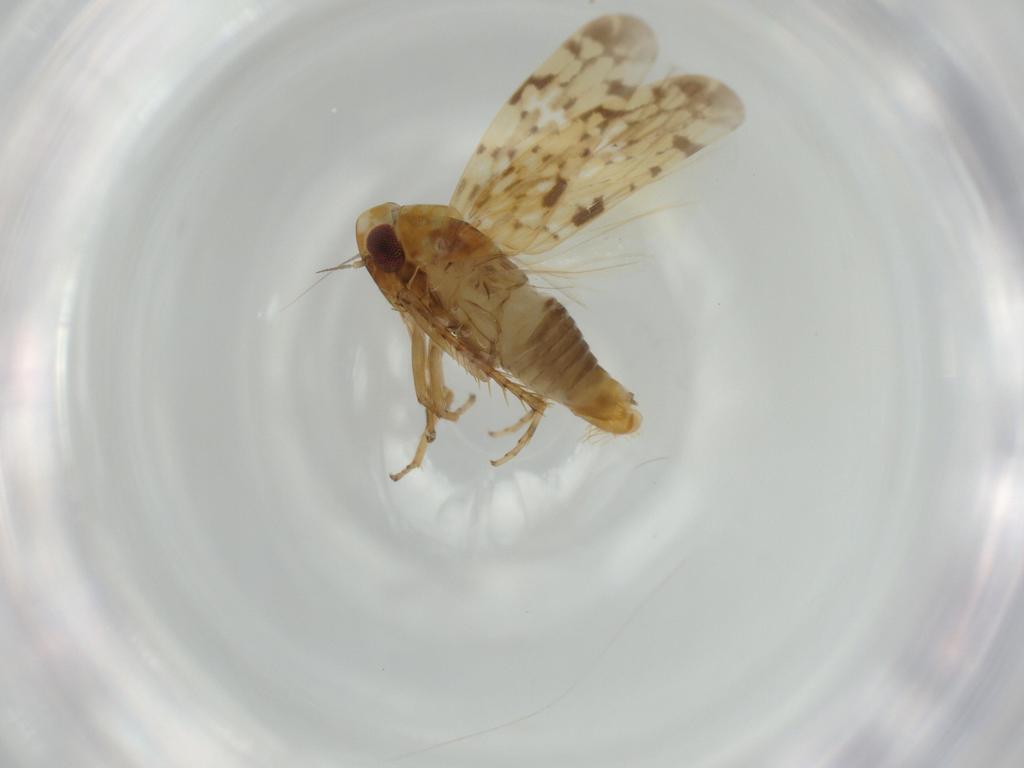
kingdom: Animalia
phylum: Arthropoda
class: Insecta
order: Hemiptera
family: Cicadellidae
